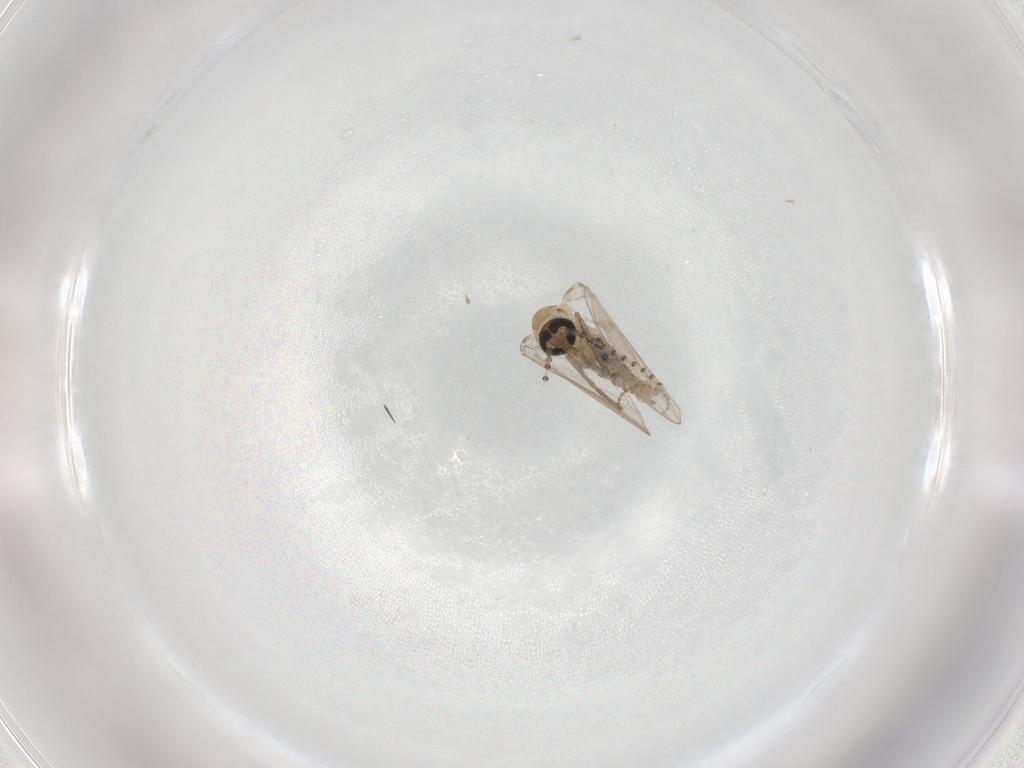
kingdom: Animalia
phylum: Arthropoda
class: Insecta
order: Diptera
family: Psychodidae
